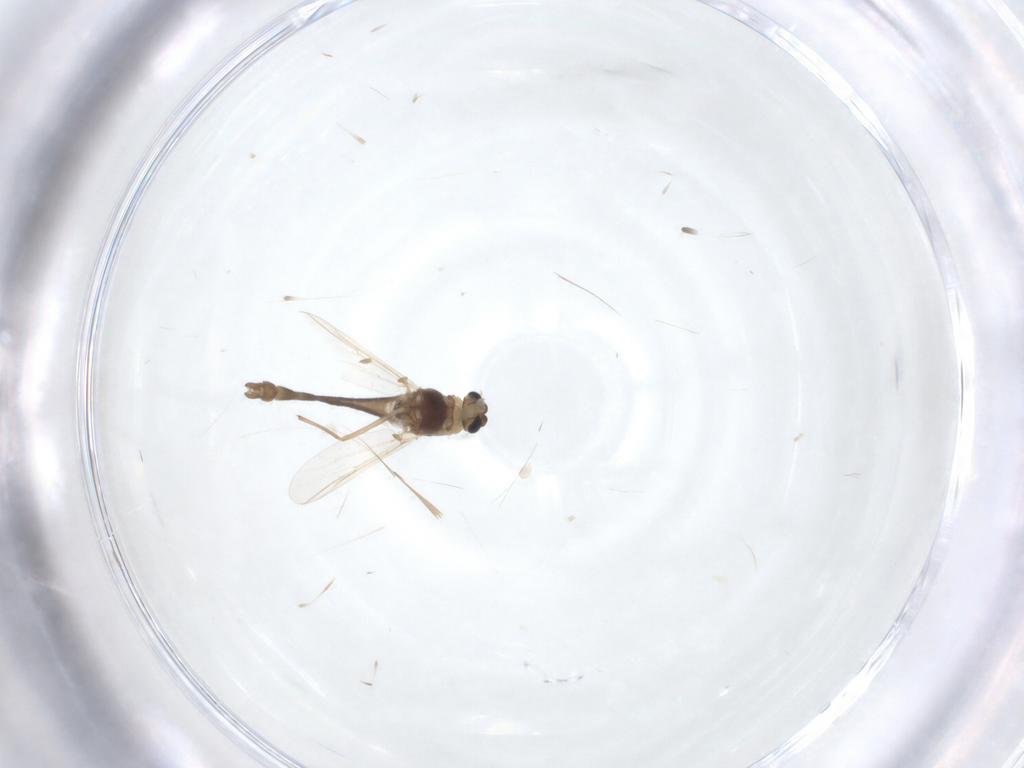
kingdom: Animalia
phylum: Arthropoda
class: Insecta
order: Diptera
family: Chironomidae
